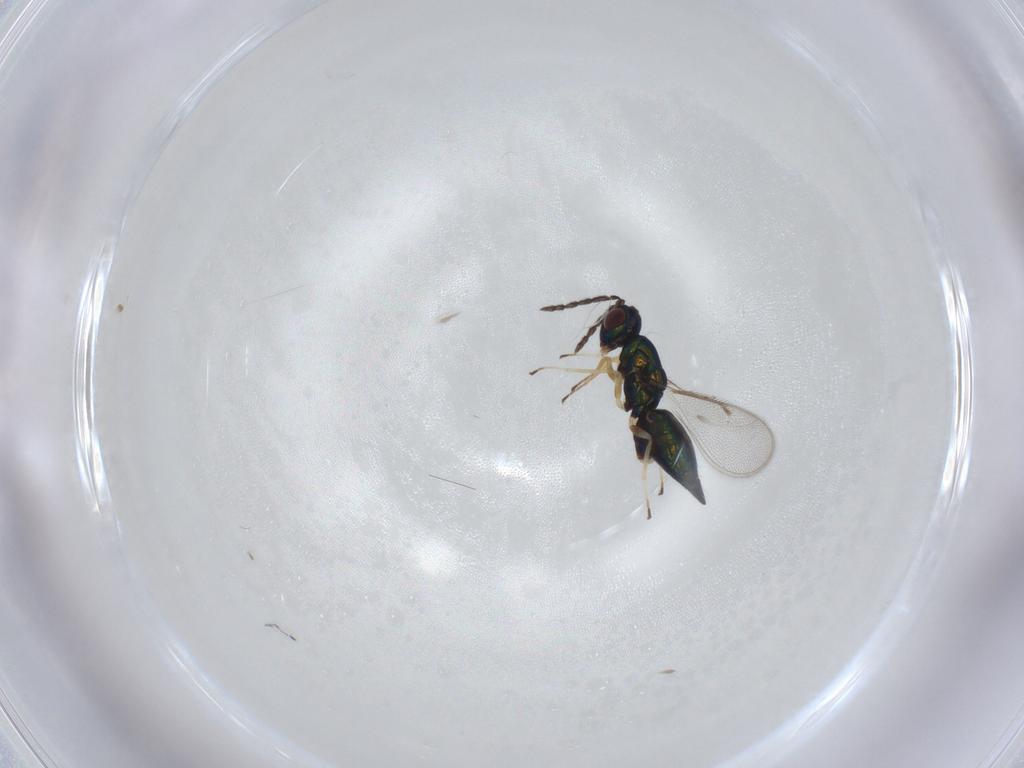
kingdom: Animalia
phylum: Arthropoda
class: Insecta
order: Hymenoptera
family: Eulophidae
